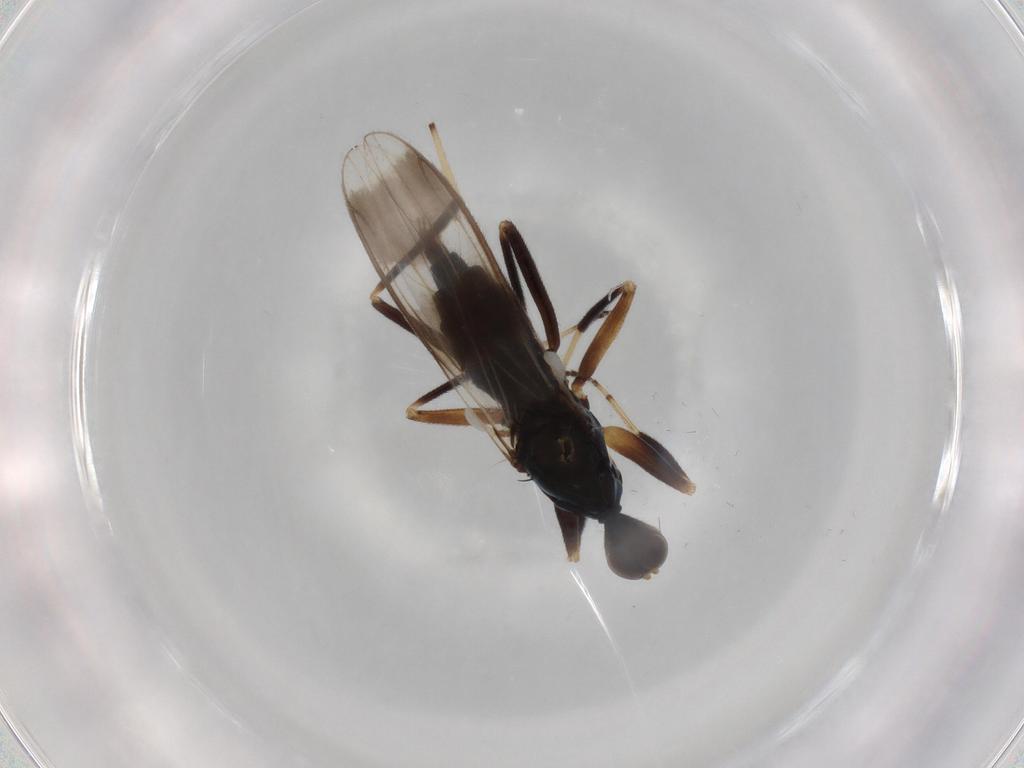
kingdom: Animalia
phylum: Arthropoda
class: Insecta
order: Diptera
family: Hybotidae
